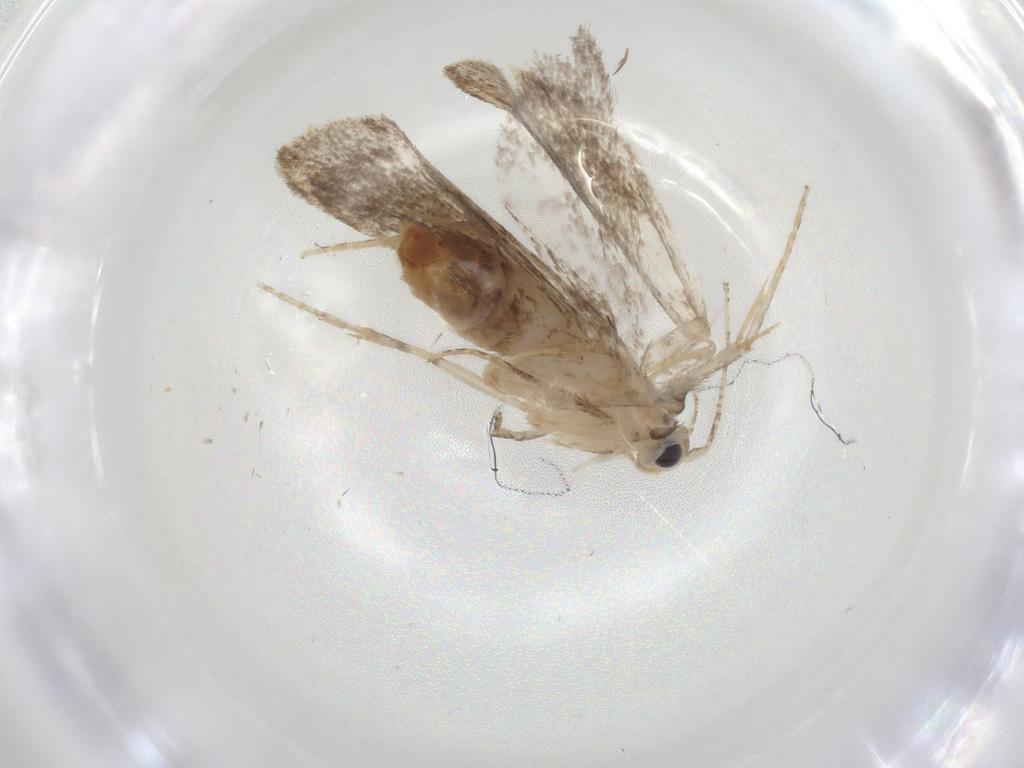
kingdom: Animalia
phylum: Arthropoda
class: Insecta
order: Lepidoptera
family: Tineidae
